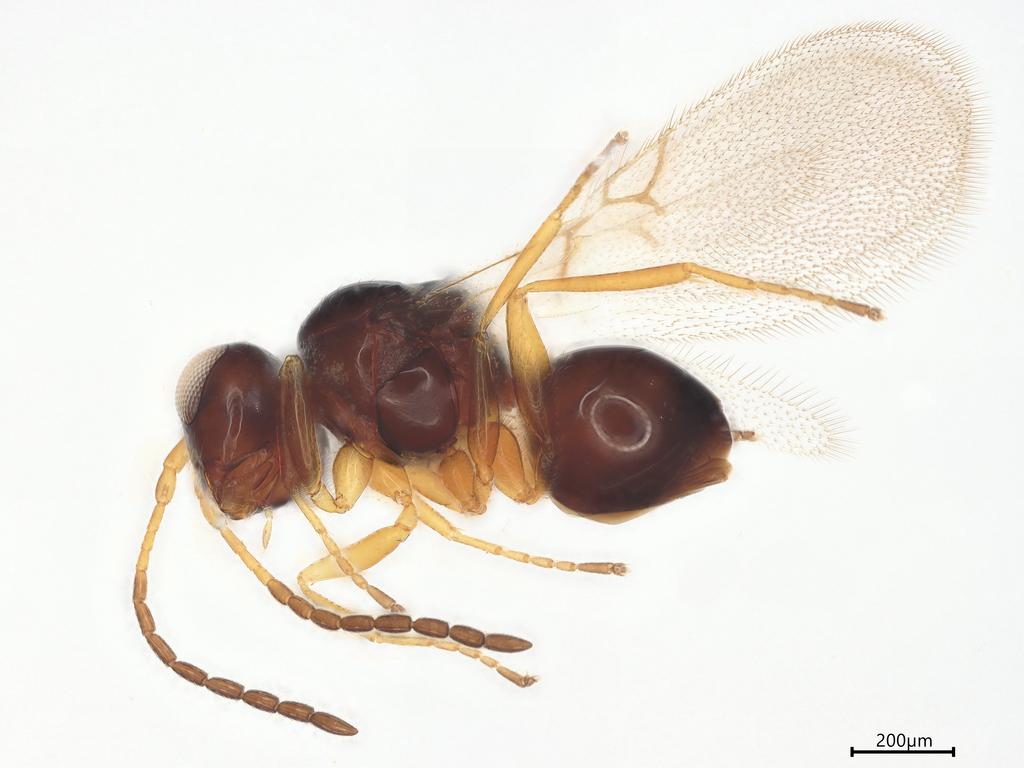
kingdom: Animalia
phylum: Arthropoda
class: Insecta
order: Hymenoptera
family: Figitidae
